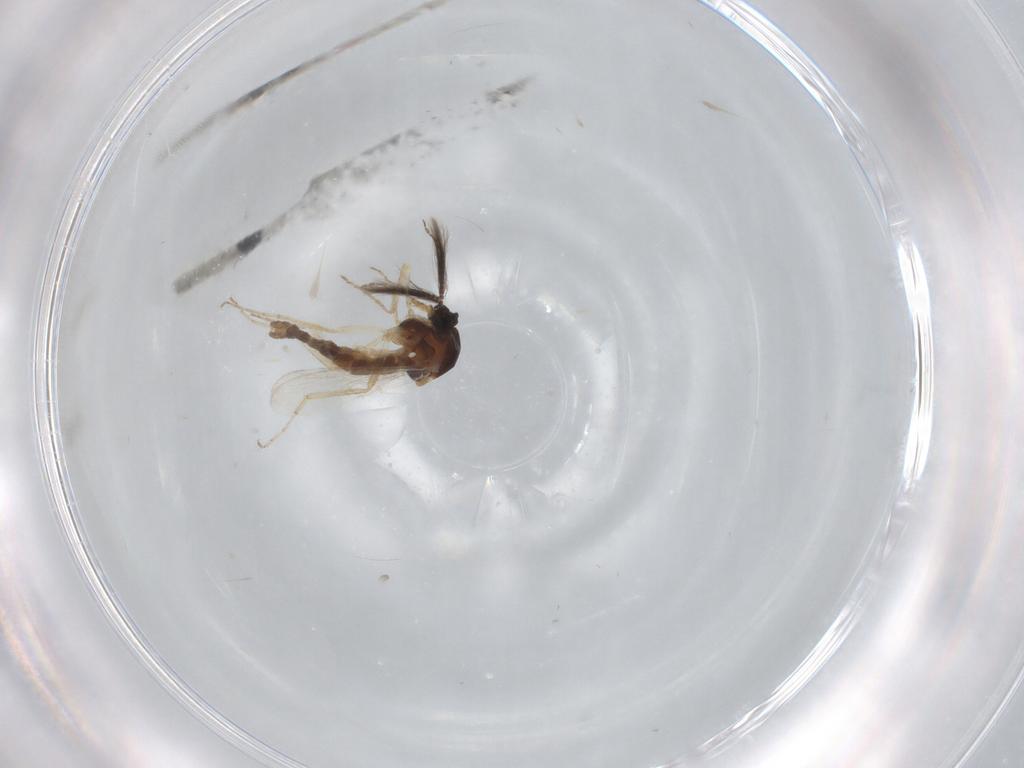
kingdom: Animalia
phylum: Arthropoda
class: Insecta
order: Diptera
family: Ceratopogonidae
